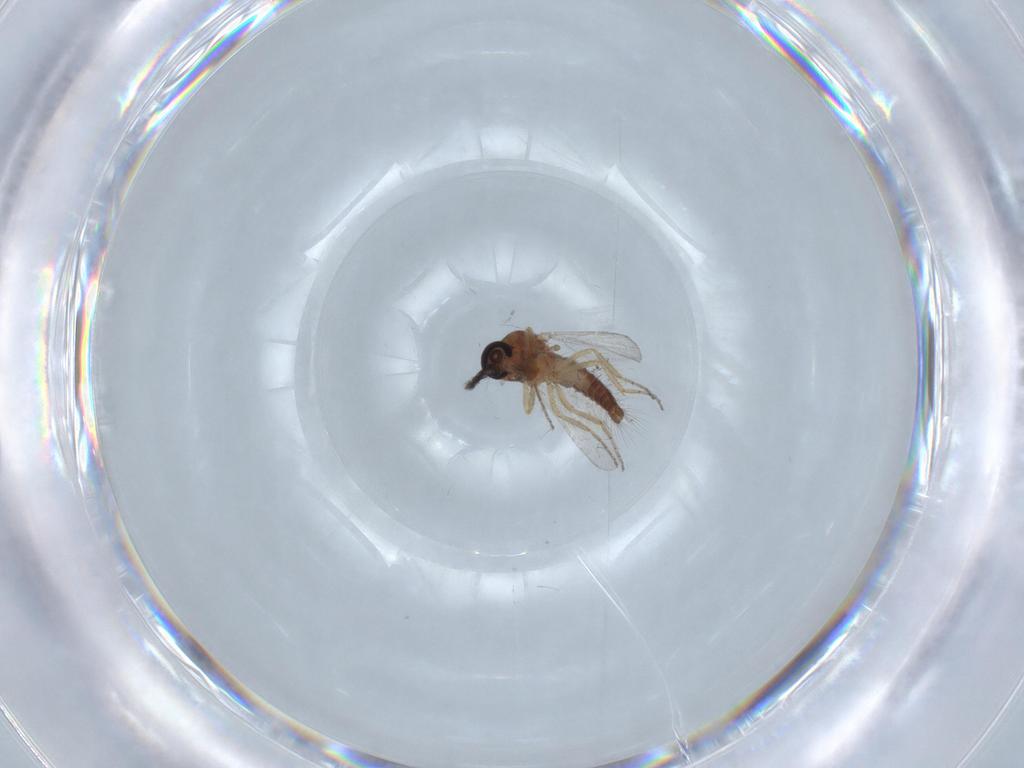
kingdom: Animalia
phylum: Arthropoda
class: Insecta
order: Diptera
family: Ceratopogonidae
